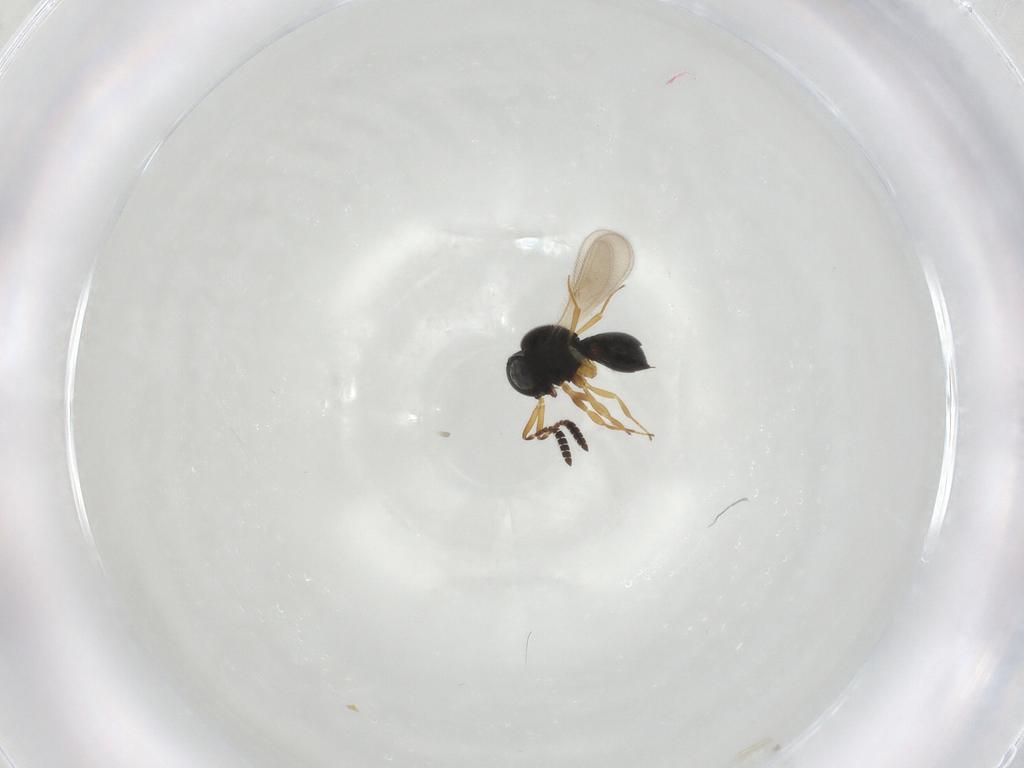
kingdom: Animalia
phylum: Arthropoda
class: Insecta
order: Hymenoptera
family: Scelionidae
